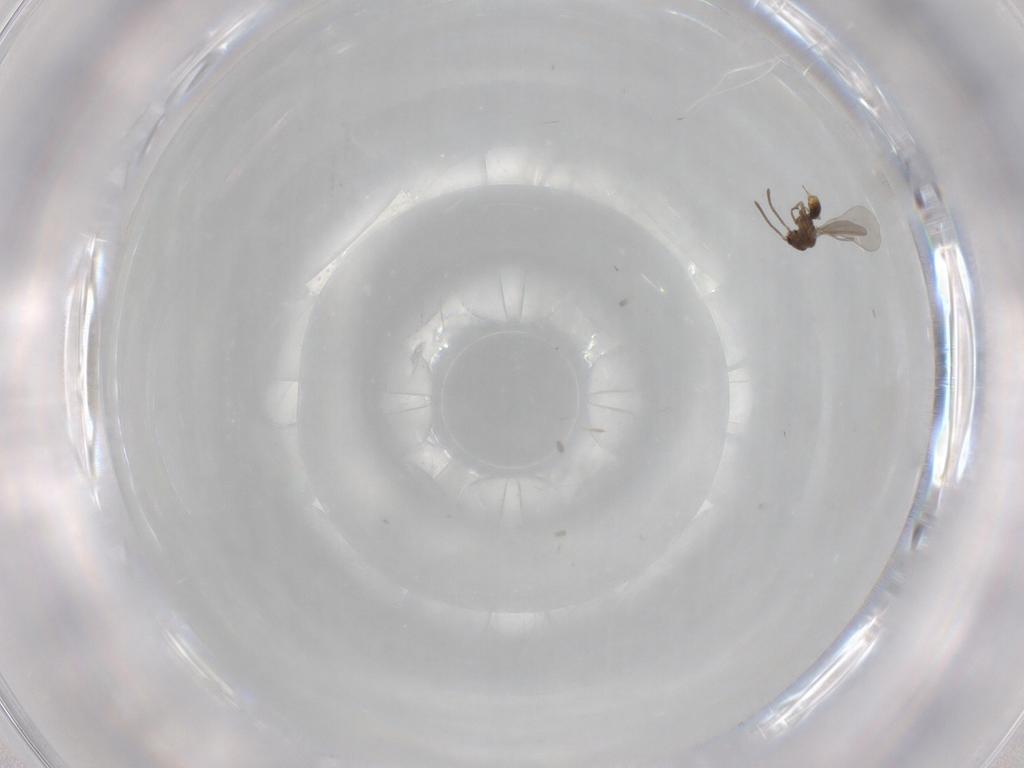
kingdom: Animalia
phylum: Arthropoda
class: Insecta
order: Hymenoptera
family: Formicidae
